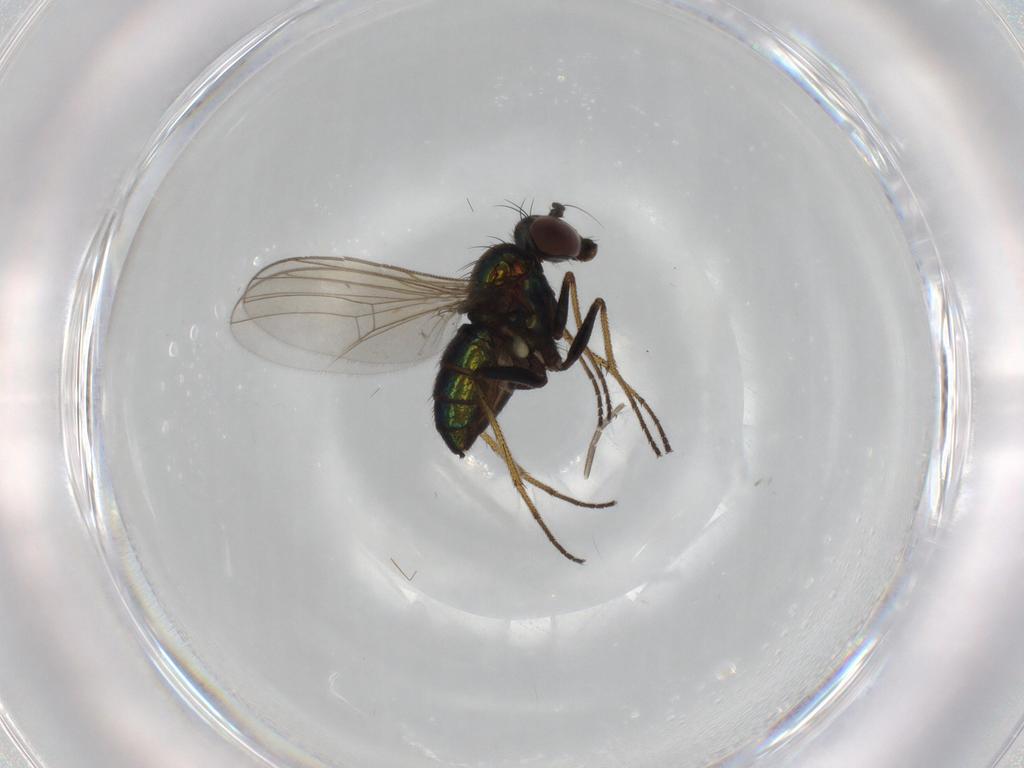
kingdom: Animalia
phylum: Arthropoda
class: Insecta
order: Diptera
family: Dolichopodidae
